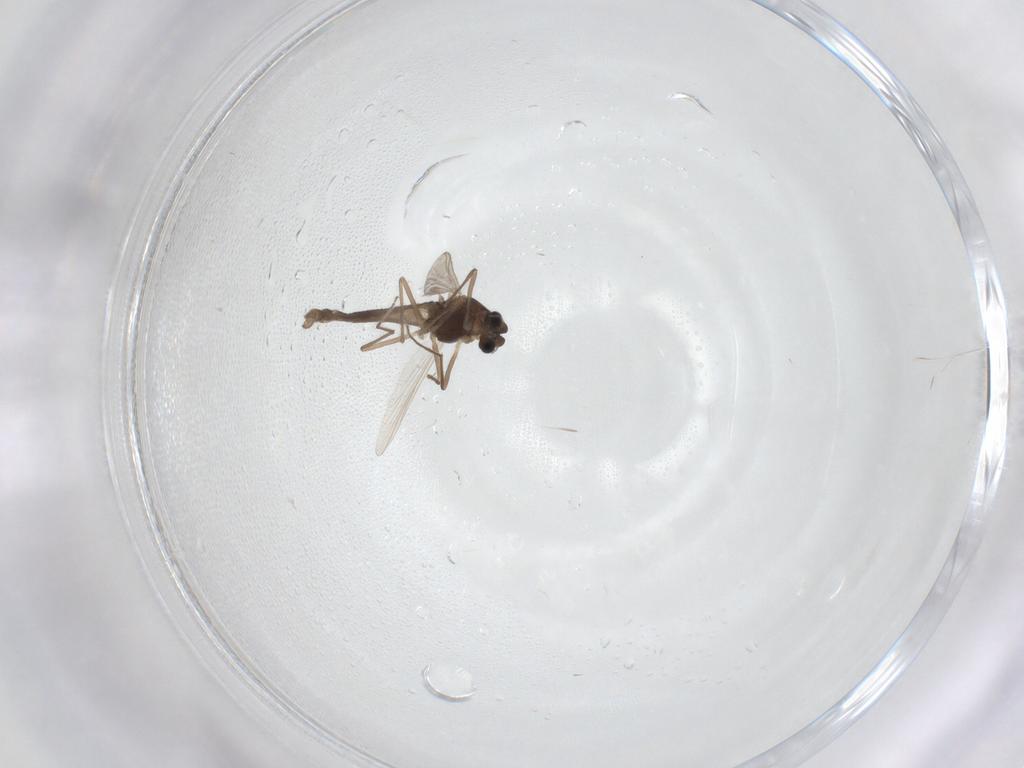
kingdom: Animalia
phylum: Arthropoda
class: Insecta
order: Diptera
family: Chironomidae
